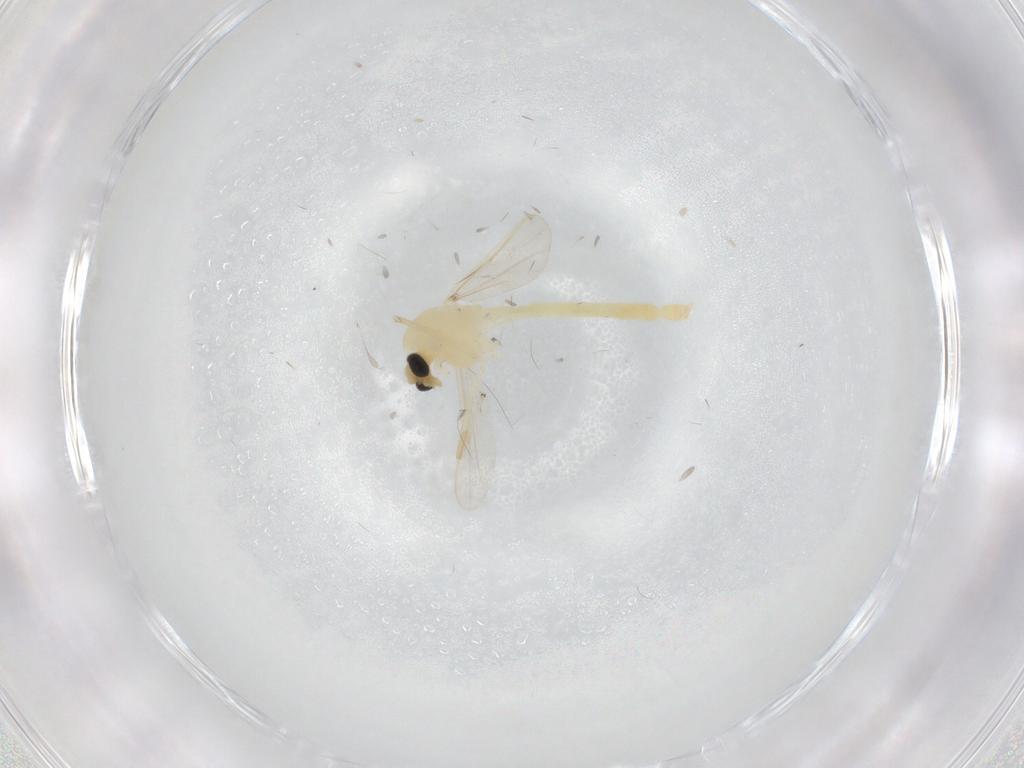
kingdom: Animalia
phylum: Arthropoda
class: Insecta
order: Diptera
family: Chironomidae
